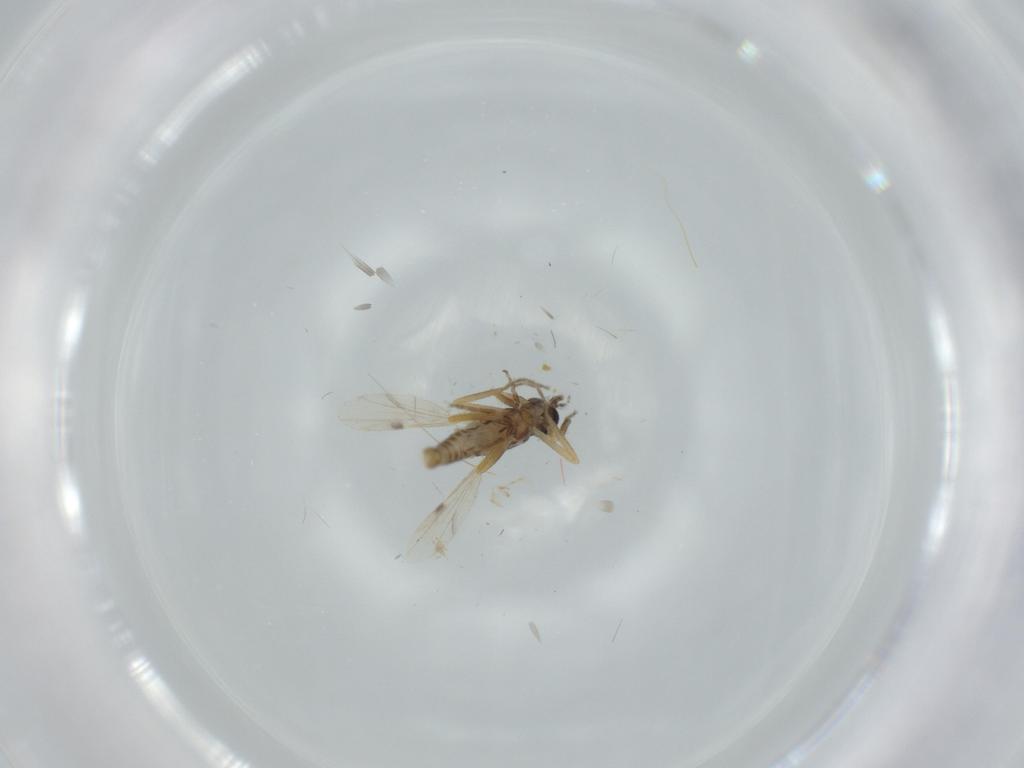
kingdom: Animalia
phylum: Arthropoda
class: Insecta
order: Diptera
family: Ceratopogonidae
